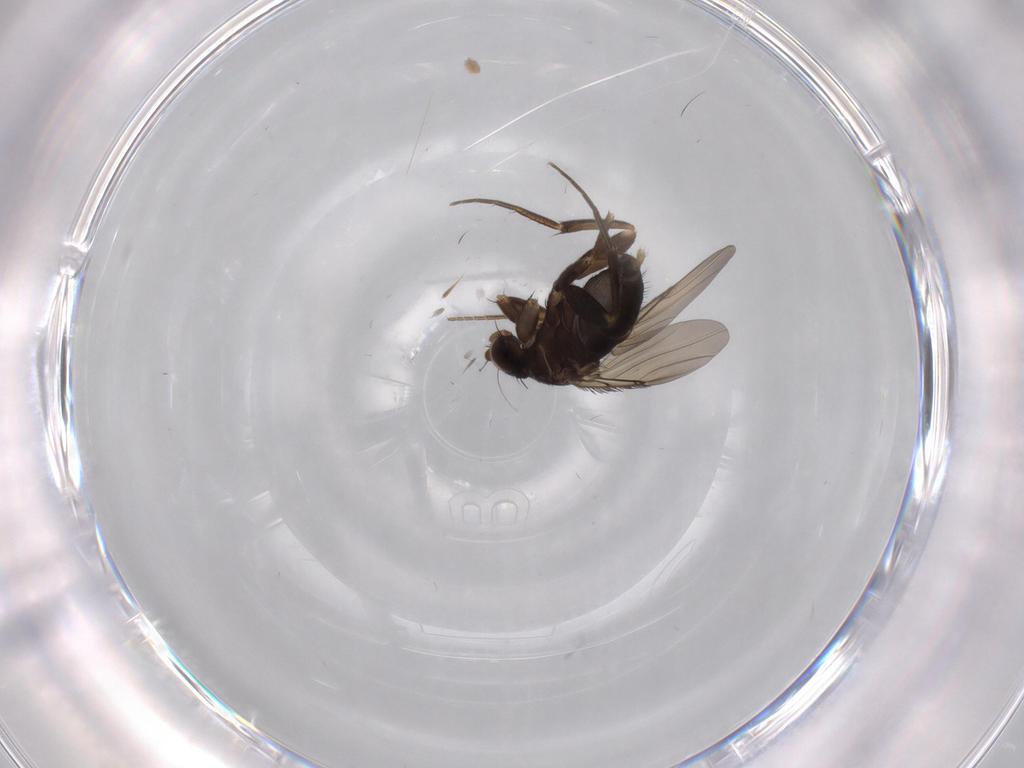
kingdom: Animalia
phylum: Arthropoda
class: Insecta
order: Diptera
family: Phoridae
